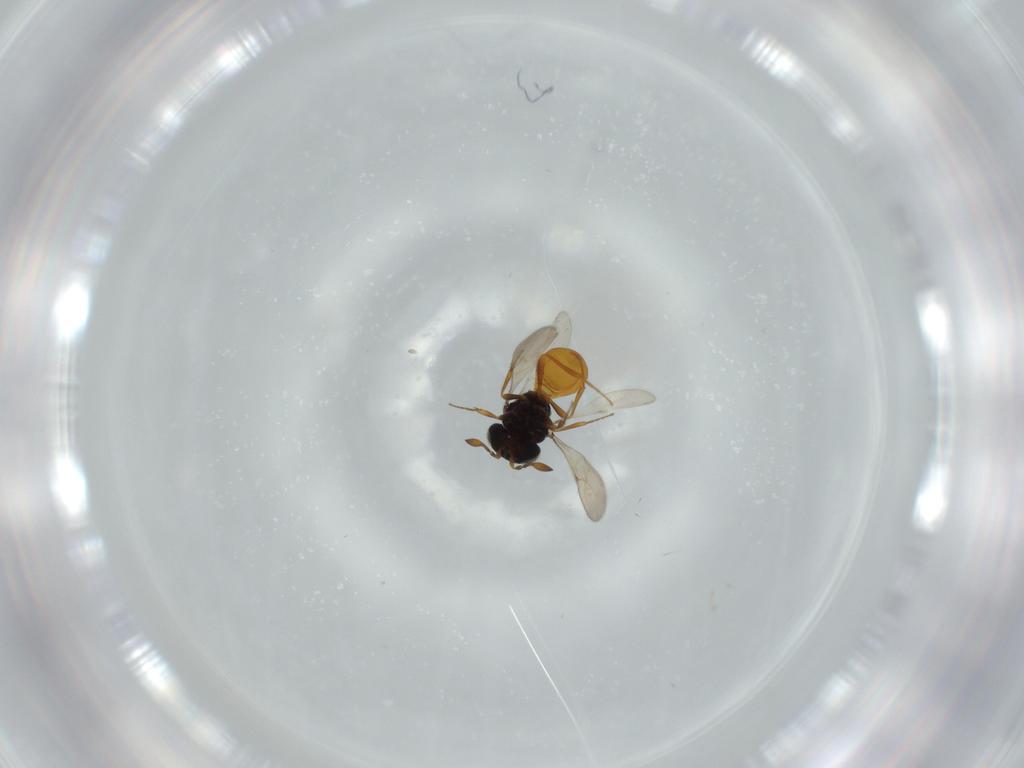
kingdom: Animalia
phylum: Arthropoda
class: Insecta
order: Hymenoptera
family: Scelionidae
